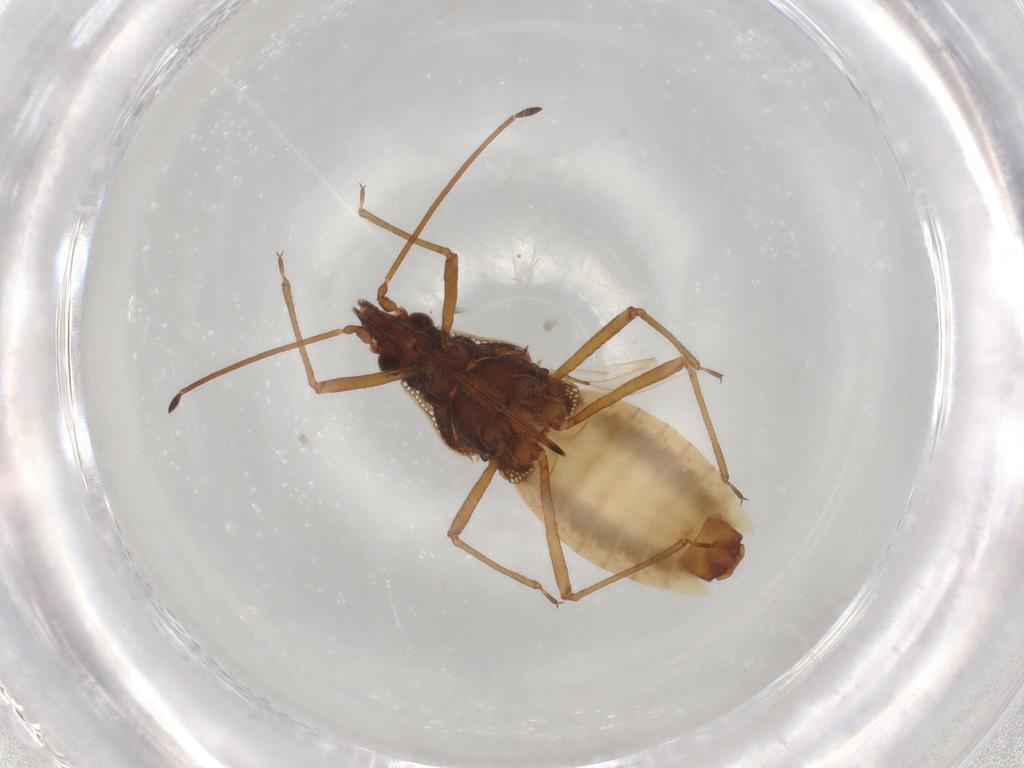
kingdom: Animalia
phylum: Arthropoda
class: Insecta
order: Hemiptera
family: Tingidae
